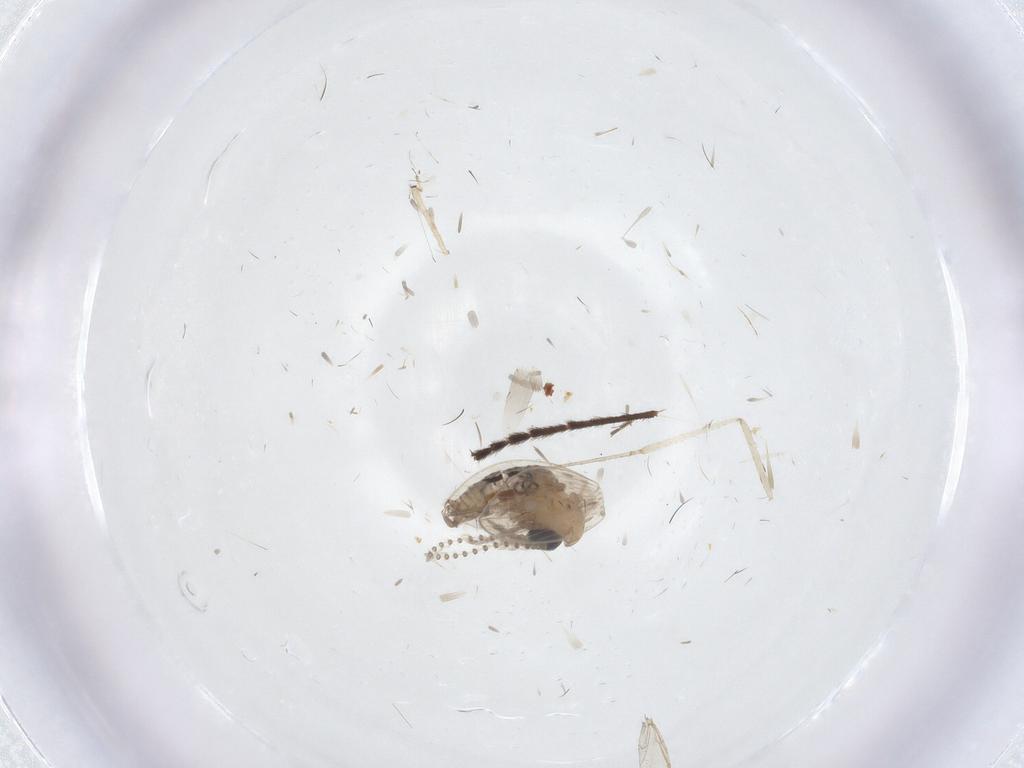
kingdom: Animalia
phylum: Arthropoda
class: Insecta
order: Diptera
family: Psychodidae
